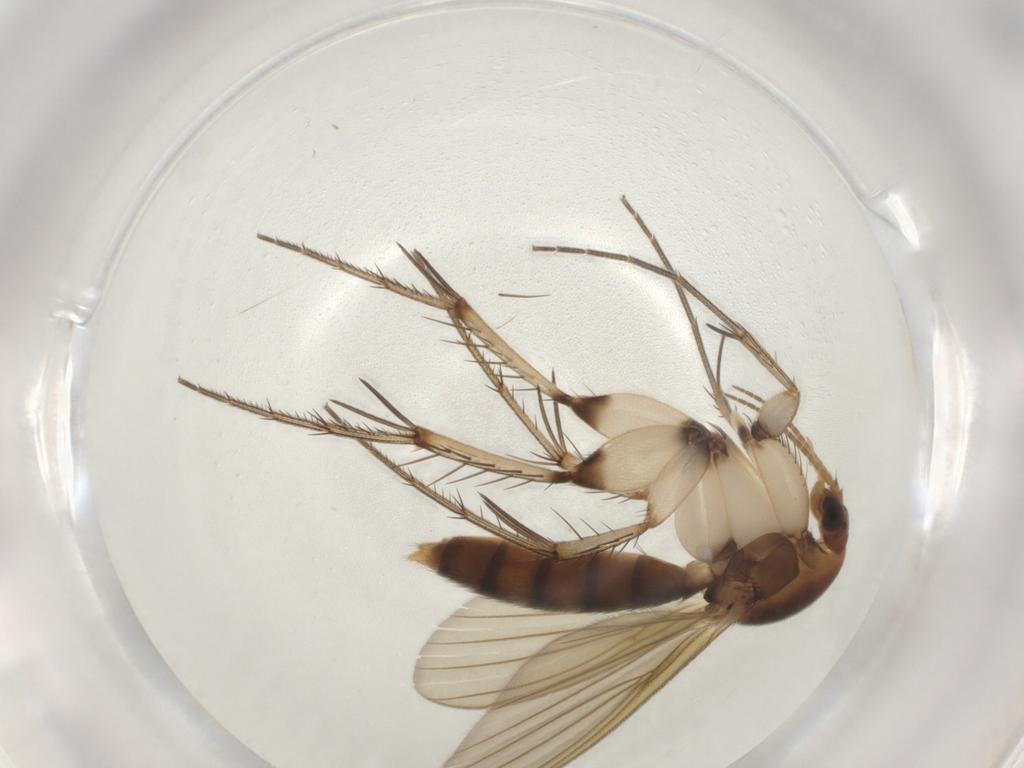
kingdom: Animalia
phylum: Arthropoda
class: Insecta
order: Diptera
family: Mycetophilidae
